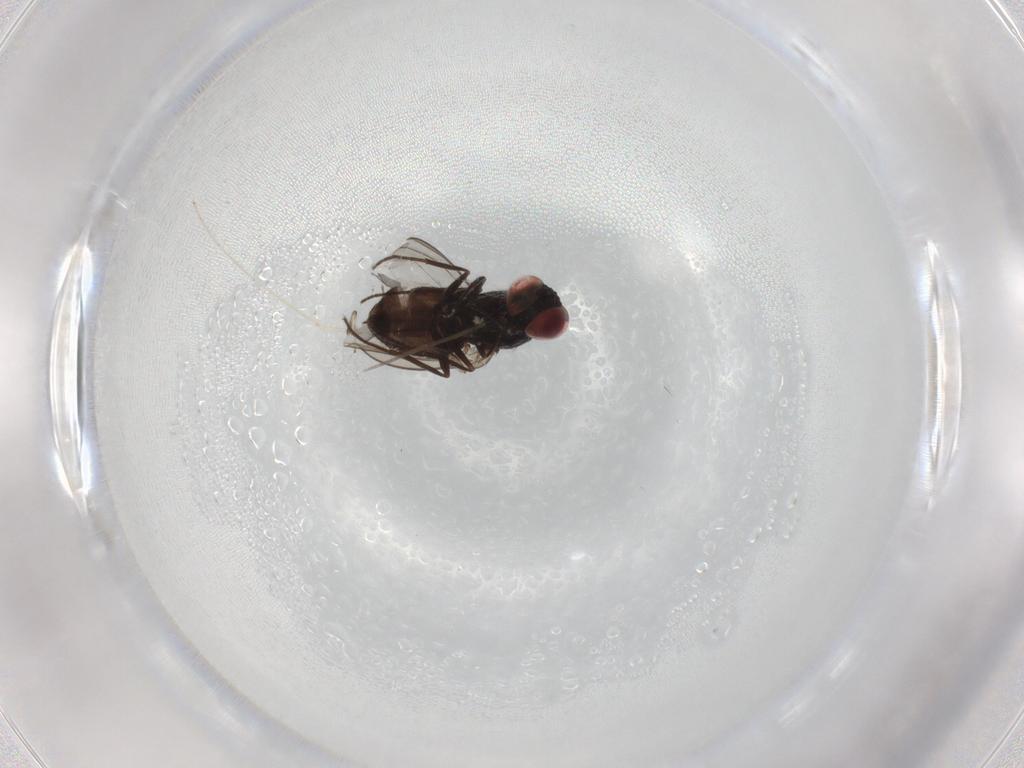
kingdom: Animalia
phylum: Arthropoda
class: Insecta
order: Diptera
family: Dolichopodidae
